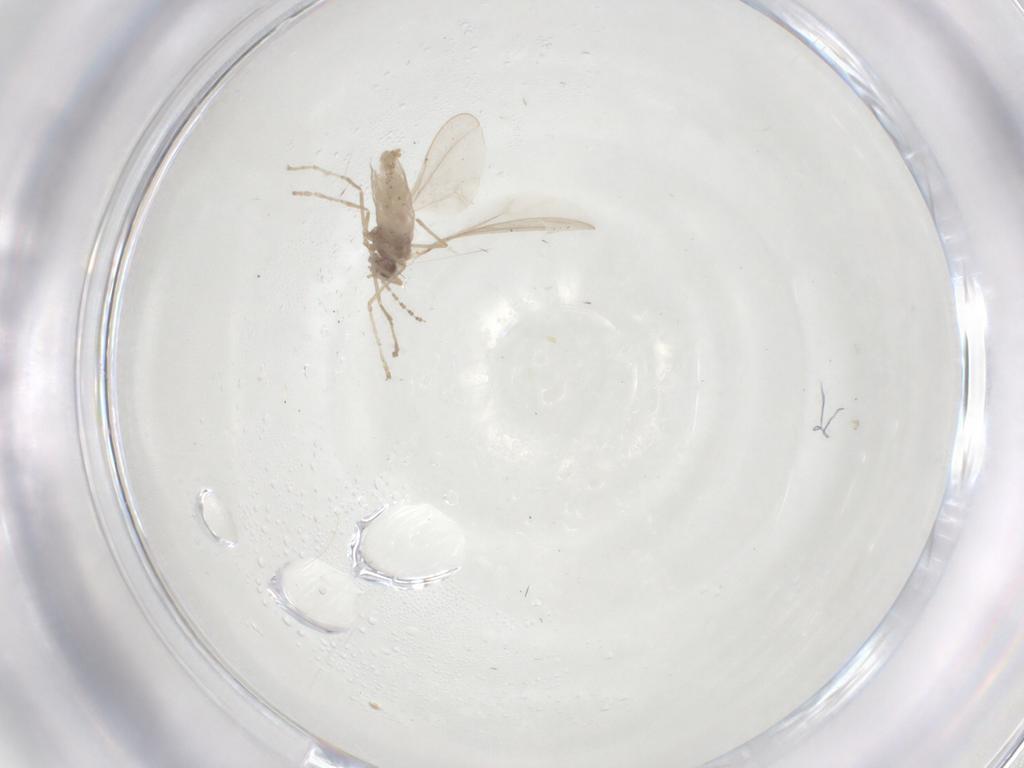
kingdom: Animalia
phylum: Arthropoda
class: Insecta
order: Diptera
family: Cecidomyiidae
